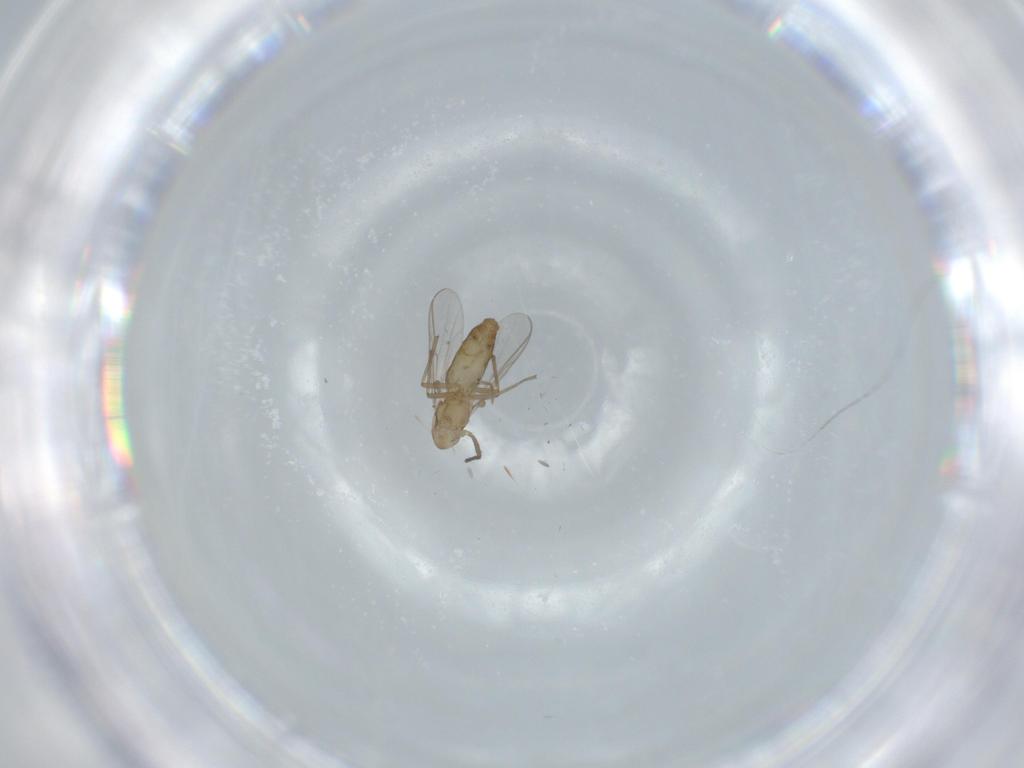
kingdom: Animalia
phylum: Arthropoda
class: Insecta
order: Diptera
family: Chironomidae
